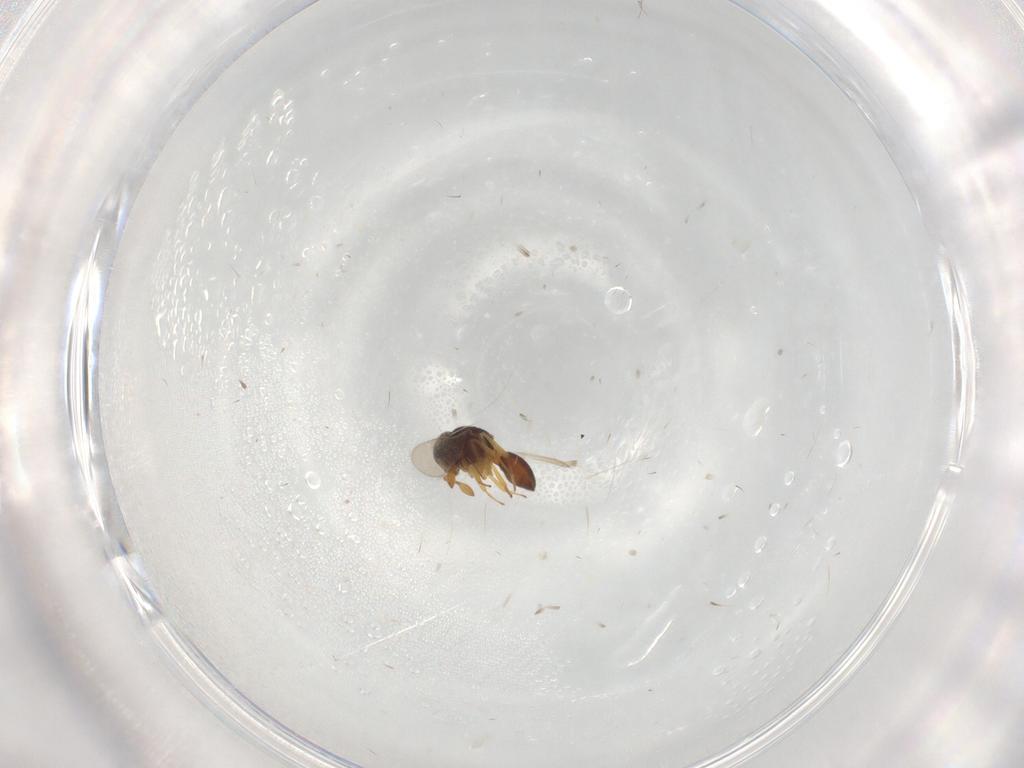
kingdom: Animalia
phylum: Arthropoda
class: Insecta
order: Hymenoptera
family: Scelionidae
